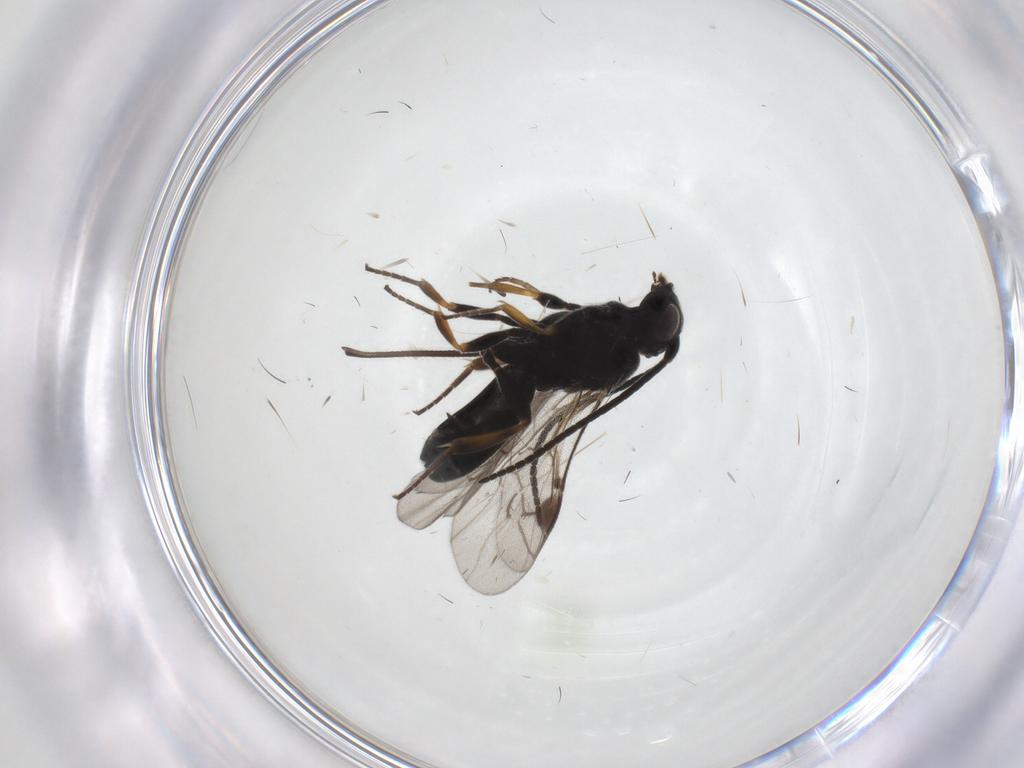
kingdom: Animalia
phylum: Arthropoda
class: Insecta
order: Hymenoptera
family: Braconidae
